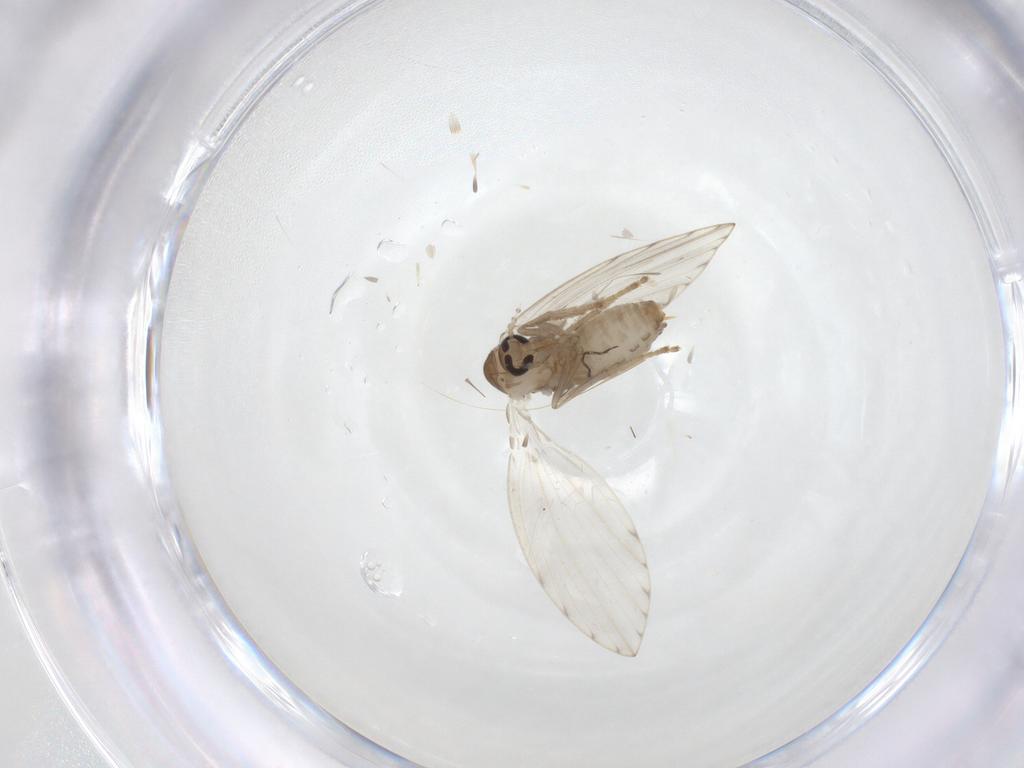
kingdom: Animalia
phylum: Arthropoda
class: Insecta
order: Diptera
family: Psychodidae
